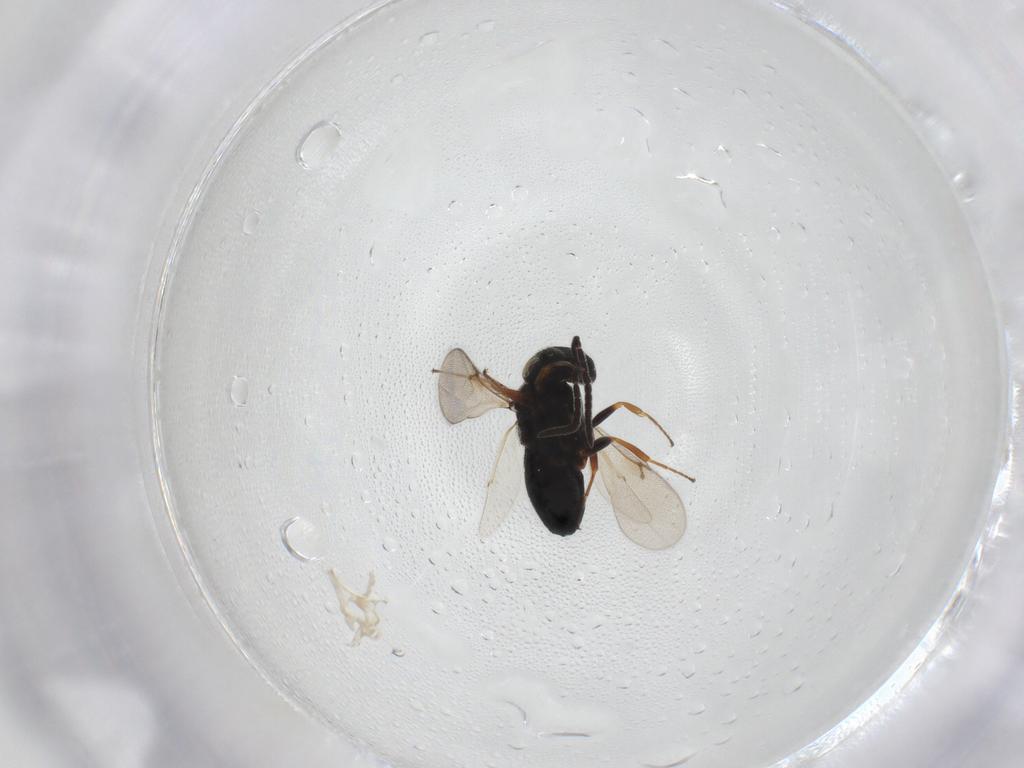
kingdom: Animalia
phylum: Arthropoda
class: Insecta
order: Hymenoptera
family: Scelionidae
